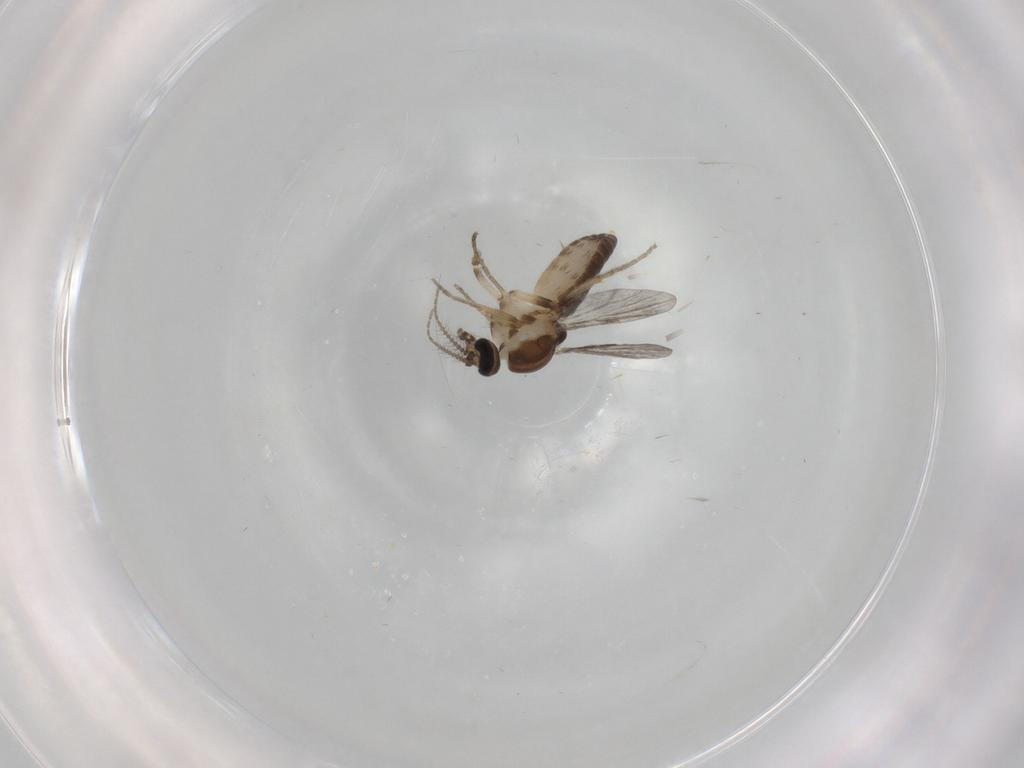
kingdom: Animalia
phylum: Arthropoda
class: Insecta
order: Diptera
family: Ceratopogonidae
